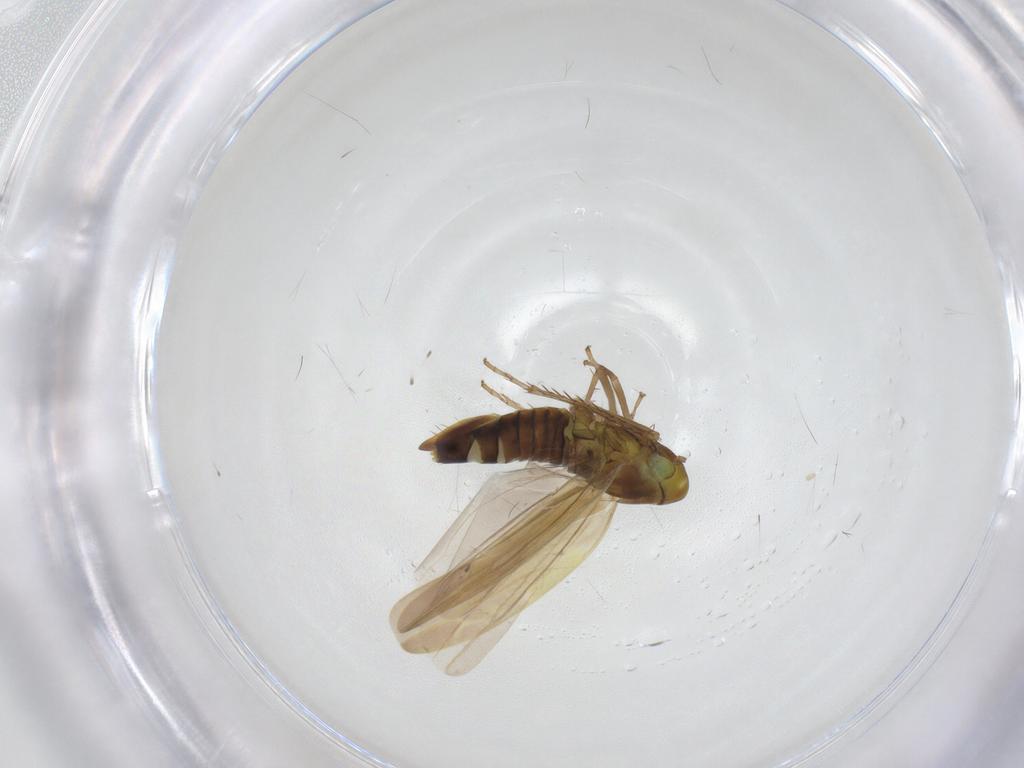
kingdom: Animalia
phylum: Arthropoda
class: Insecta
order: Hemiptera
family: Cicadellidae
